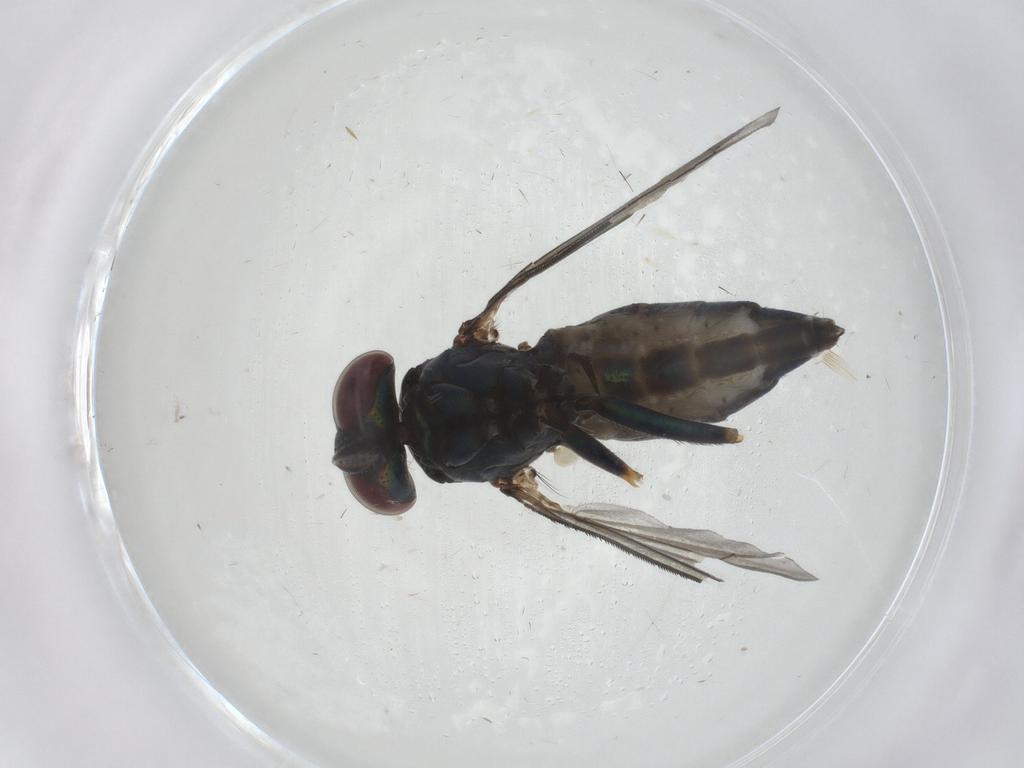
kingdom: Animalia
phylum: Arthropoda
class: Insecta
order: Diptera
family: Dolichopodidae
